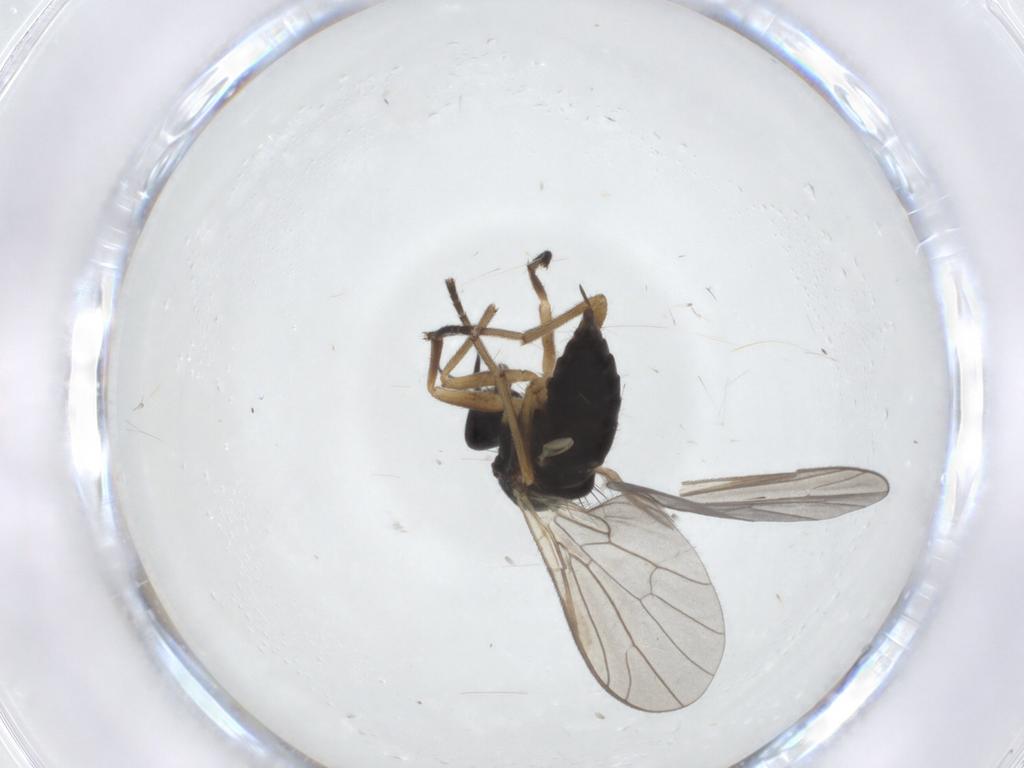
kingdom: Animalia
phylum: Arthropoda
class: Insecta
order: Diptera
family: Empididae
